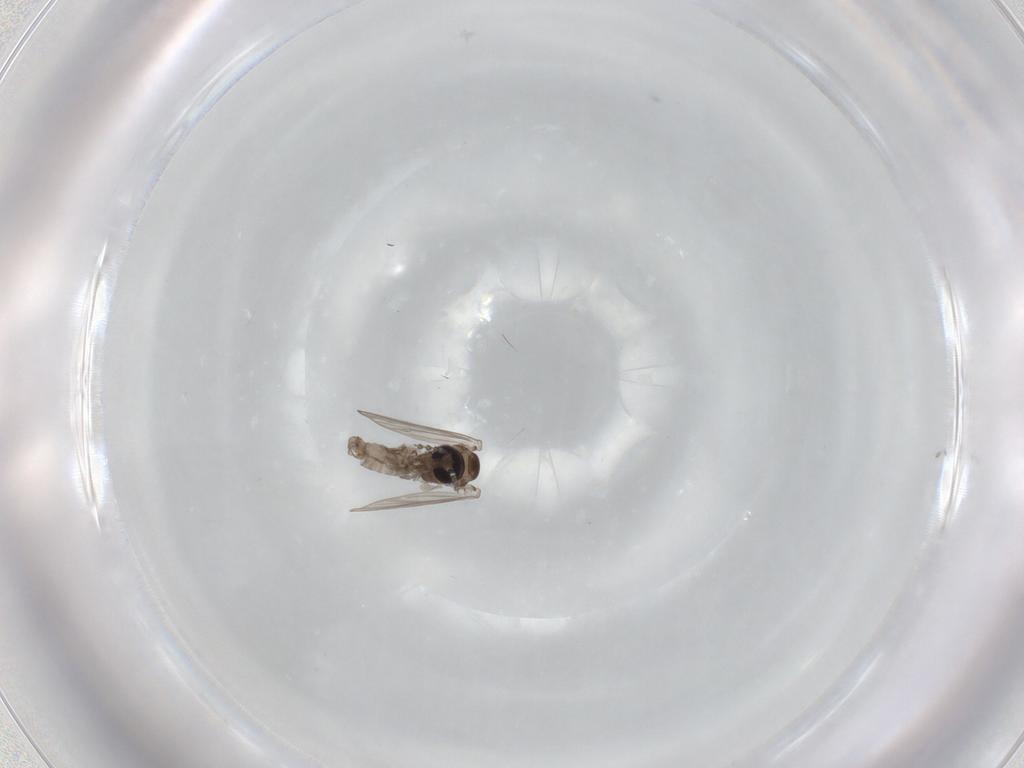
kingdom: Animalia
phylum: Arthropoda
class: Insecta
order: Diptera
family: Psychodidae
